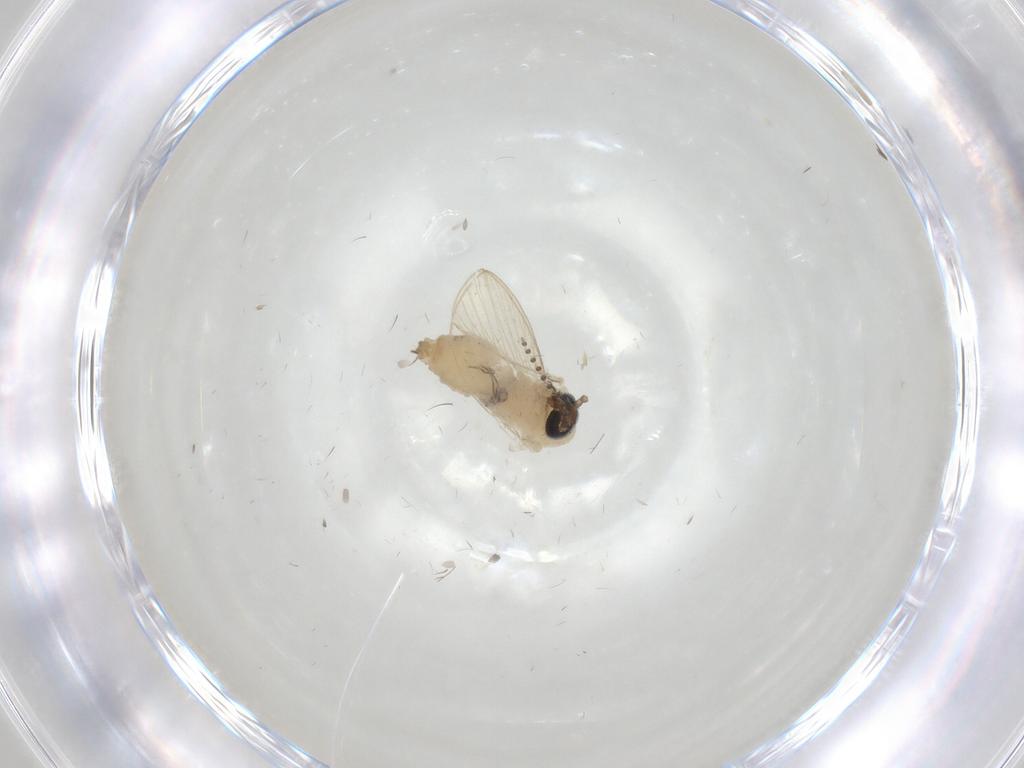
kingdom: Animalia
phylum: Arthropoda
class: Insecta
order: Diptera
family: Psychodidae
